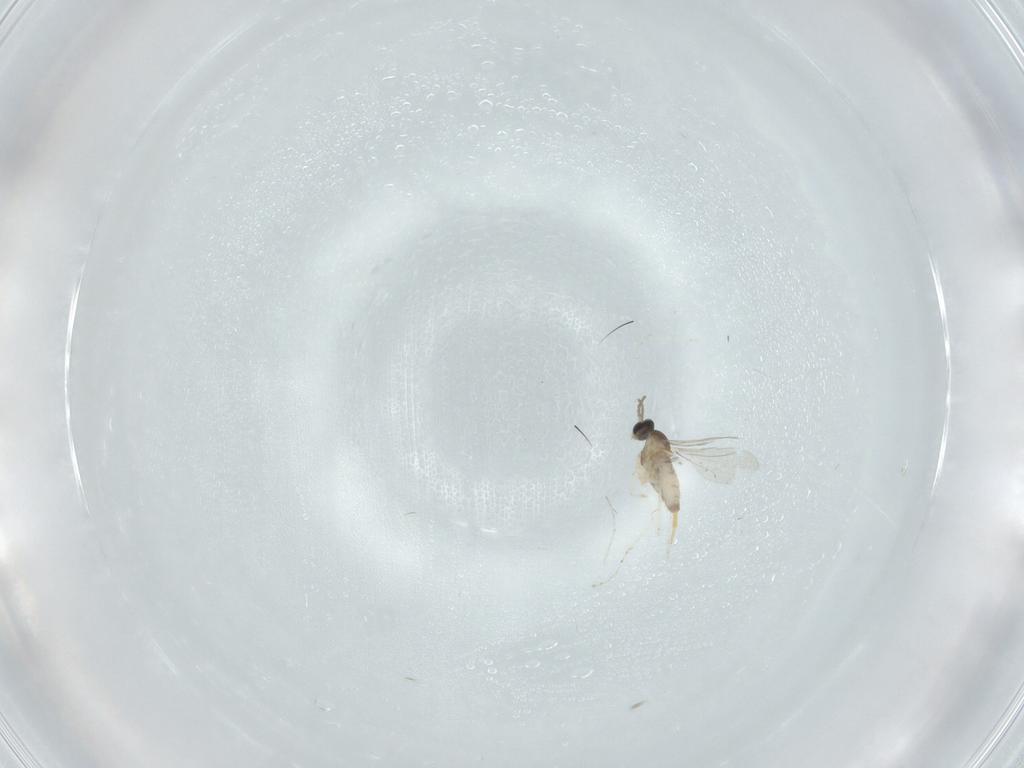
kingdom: Animalia
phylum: Arthropoda
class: Insecta
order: Diptera
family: Cecidomyiidae
